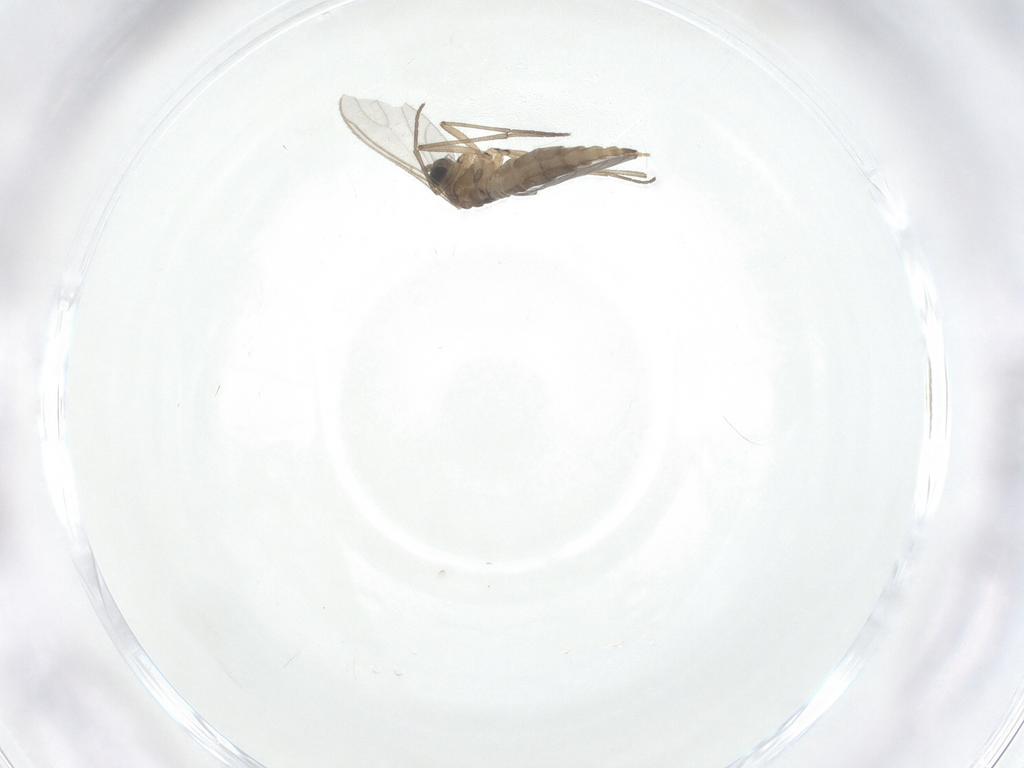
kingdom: Animalia
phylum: Arthropoda
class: Insecta
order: Diptera
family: Sciaridae
